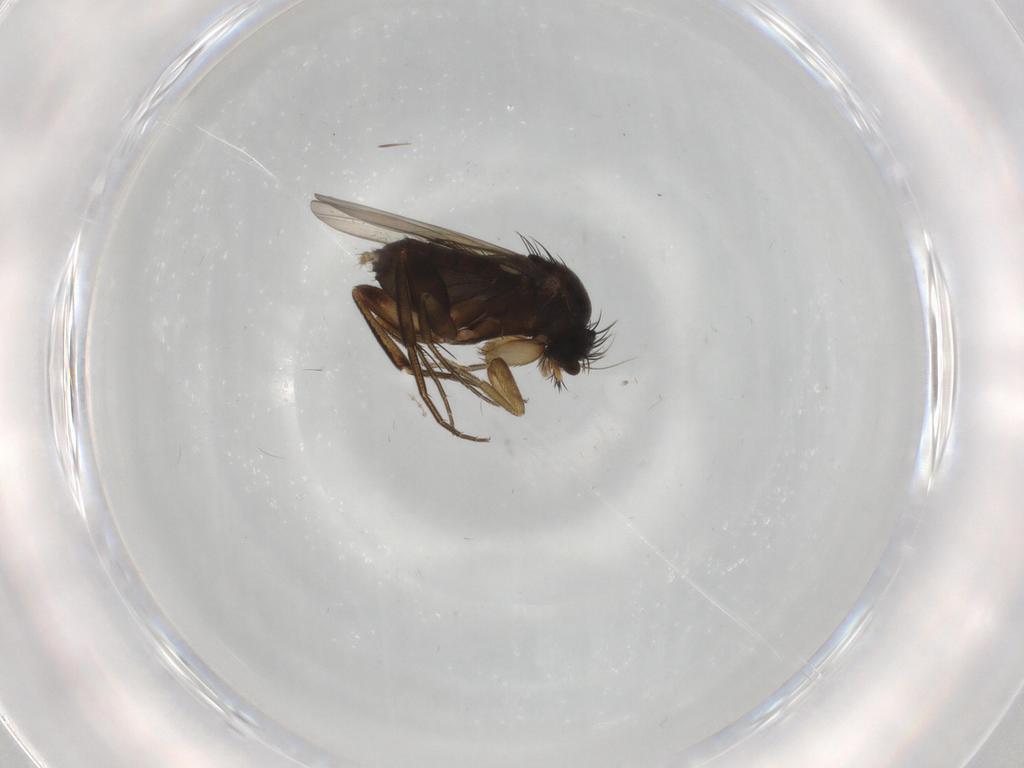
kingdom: Animalia
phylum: Arthropoda
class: Insecta
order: Diptera
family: Phoridae
